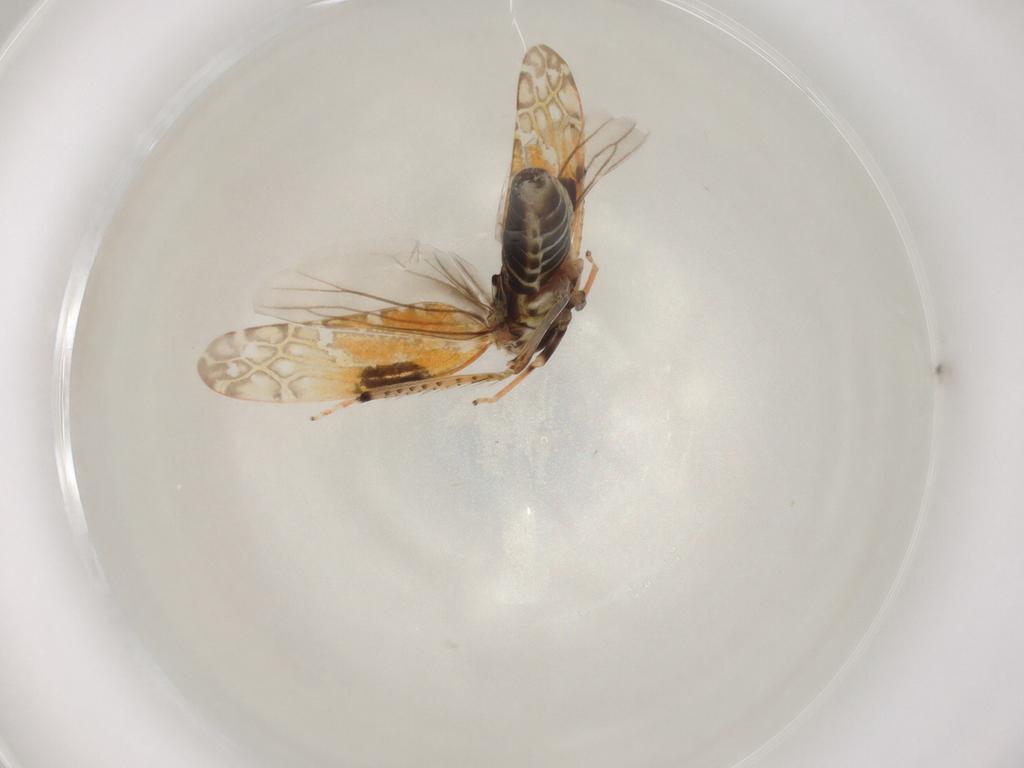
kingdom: Animalia
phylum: Arthropoda
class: Insecta
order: Hemiptera
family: Cicadellidae
